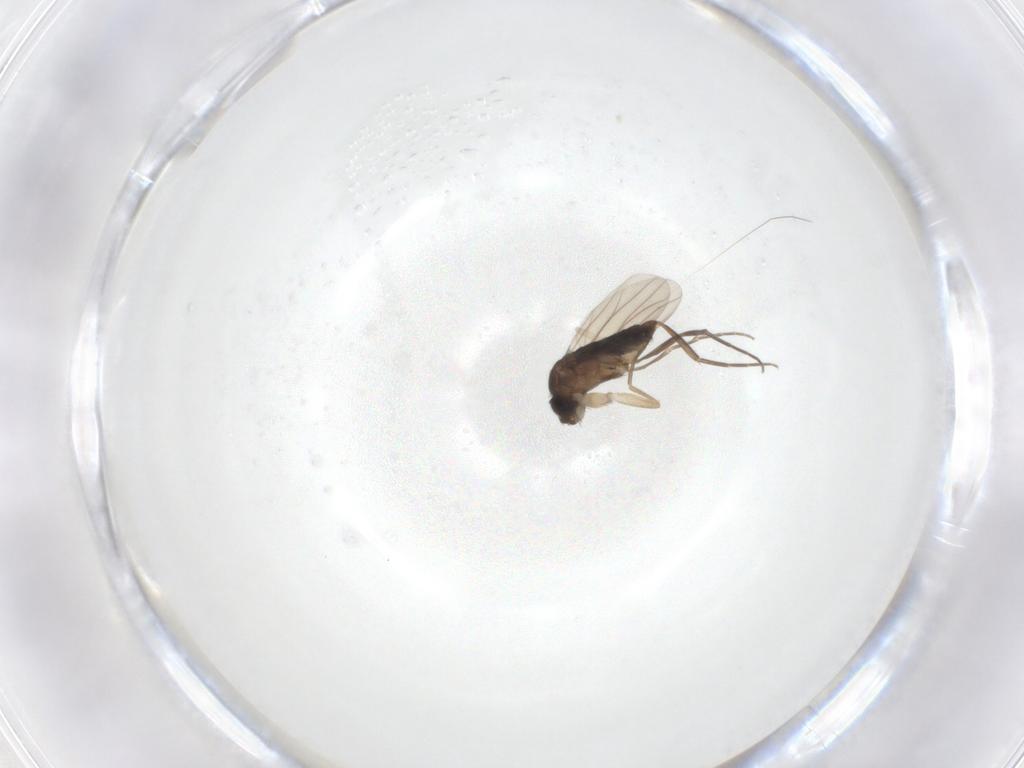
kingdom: Animalia
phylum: Arthropoda
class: Insecta
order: Diptera
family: Phoridae
